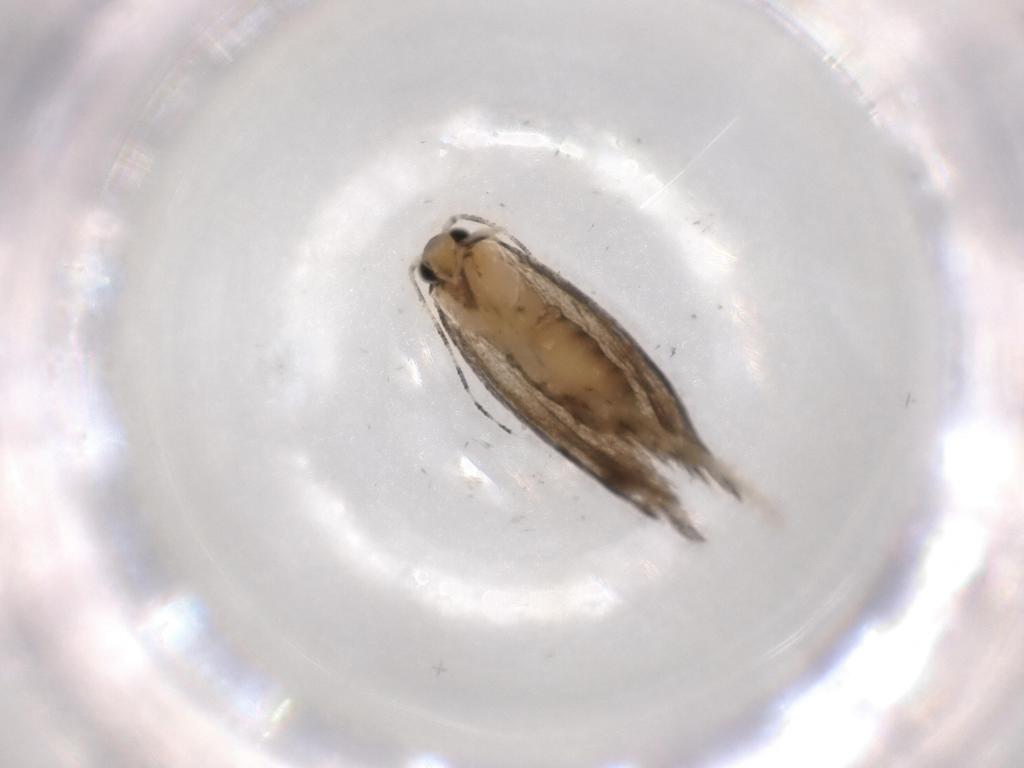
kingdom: Animalia
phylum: Arthropoda
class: Insecta
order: Lepidoptera
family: Tineidae
